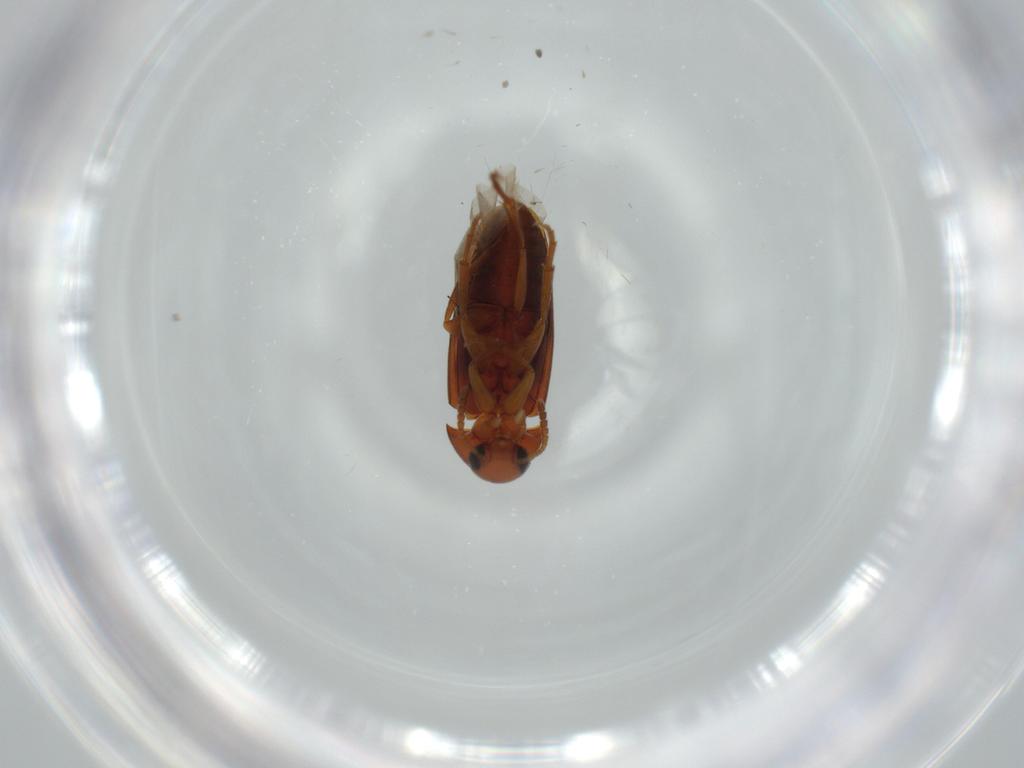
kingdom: Animalia
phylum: Arthropoda
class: Insecta
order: Coleoptera
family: Scraptiidae
